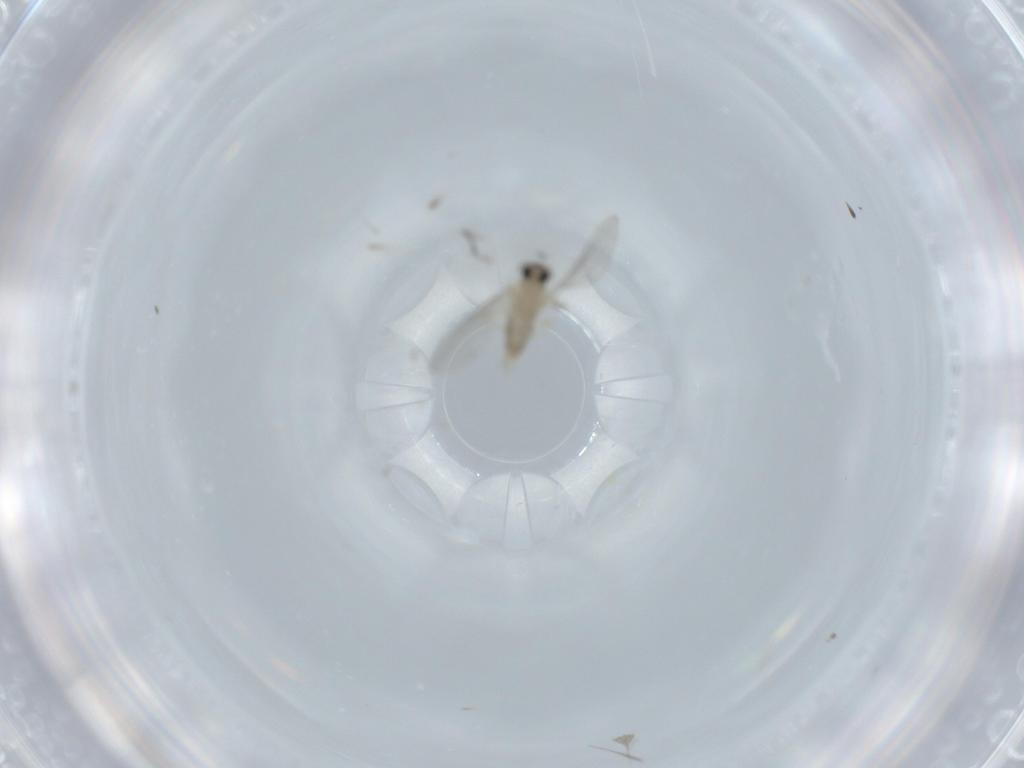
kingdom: Animalia
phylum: Arthropoda
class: Insecta
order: Diptera
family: Cecidomyiidae
